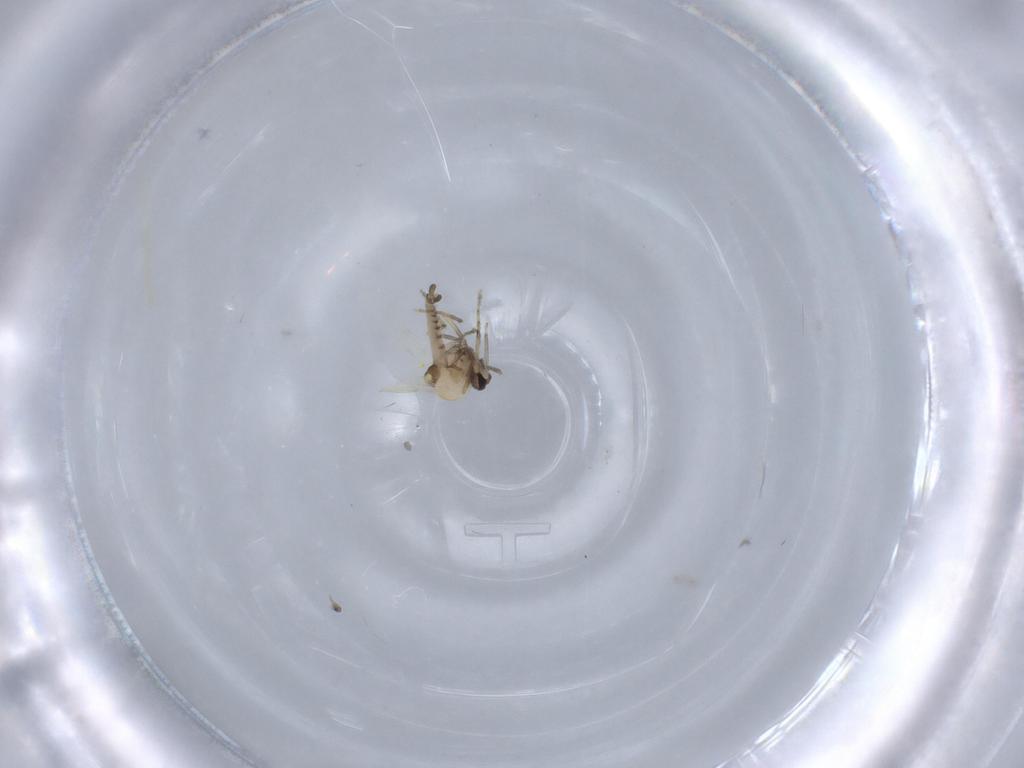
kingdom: Animalia
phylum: Arthropoda
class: Insecta
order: Diptera
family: Ceratopogonidae
